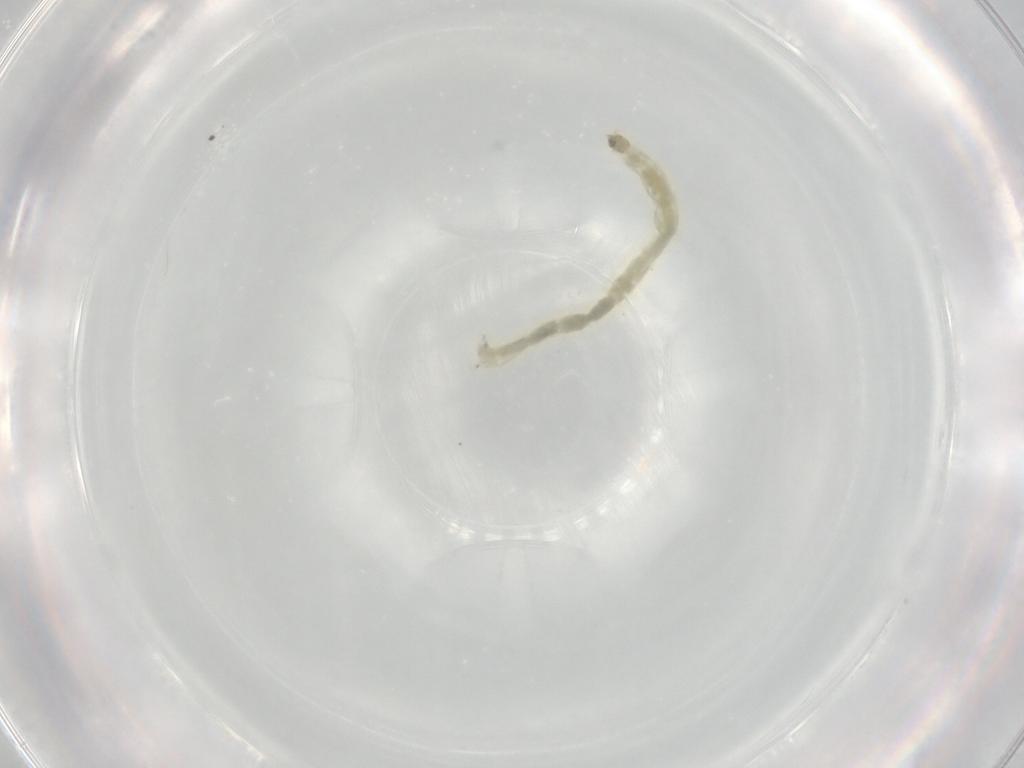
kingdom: Animalia
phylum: Arthropoda
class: Insecta
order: Diptera
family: Chironomidae
